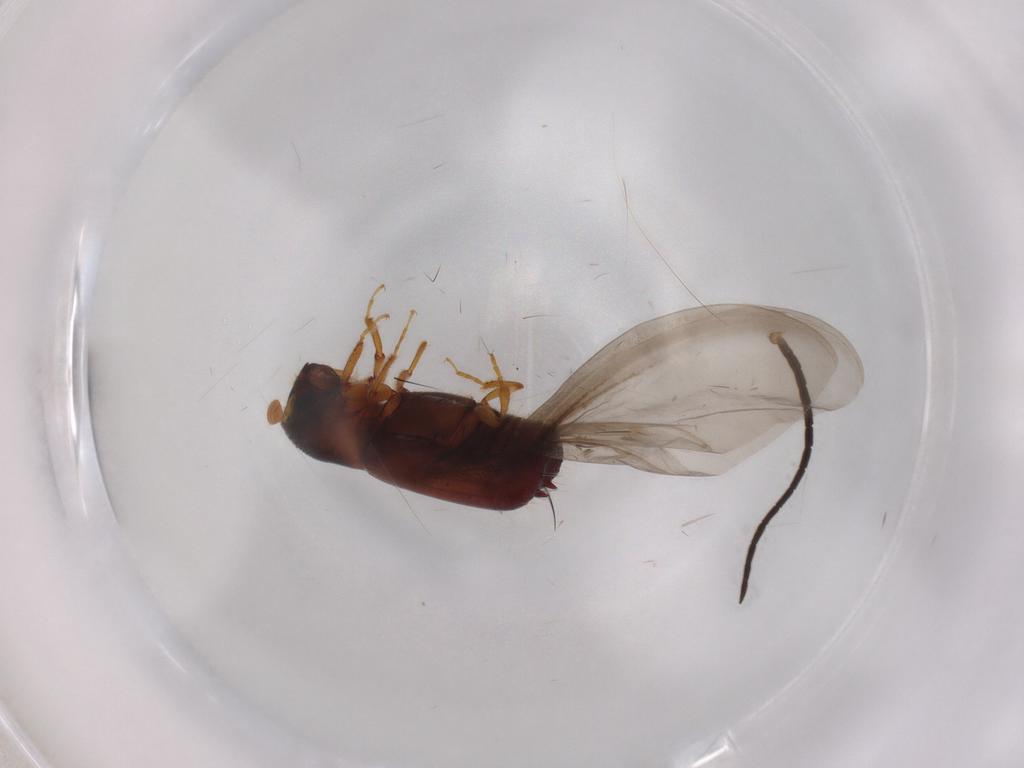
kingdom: Animalia
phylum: Arthropoda
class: Insecta
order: Coleoptera
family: Curculionidae
